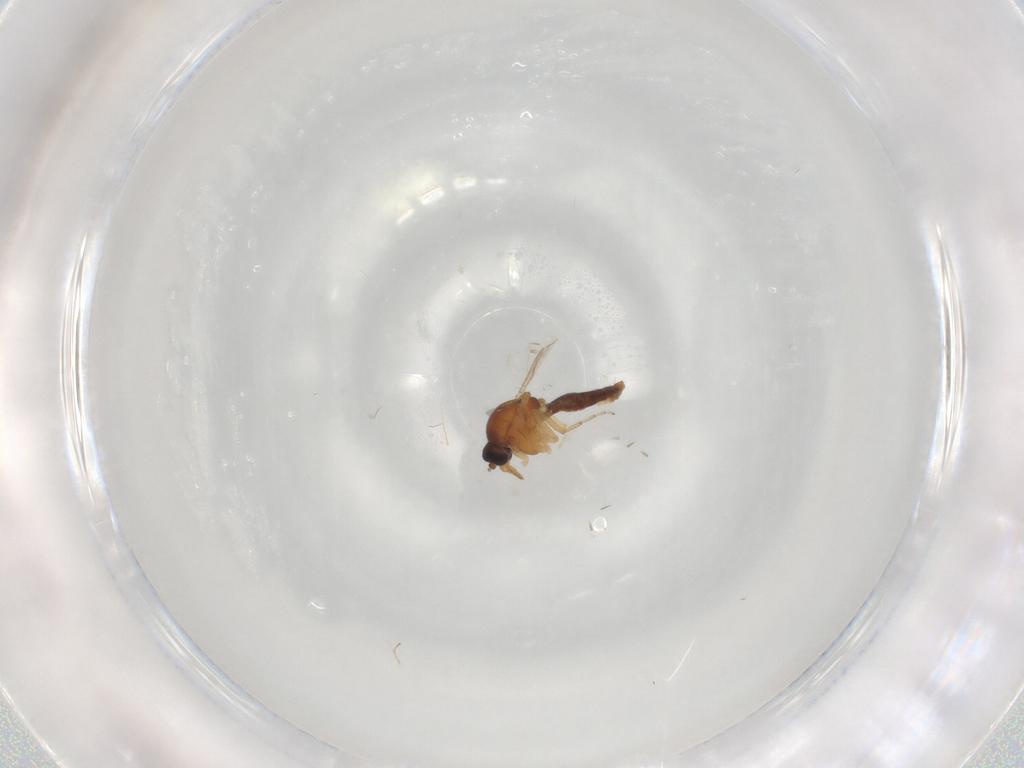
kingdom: Animalia
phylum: Arthropoda
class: Insecta
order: Diptera
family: Ceratopogonidae
